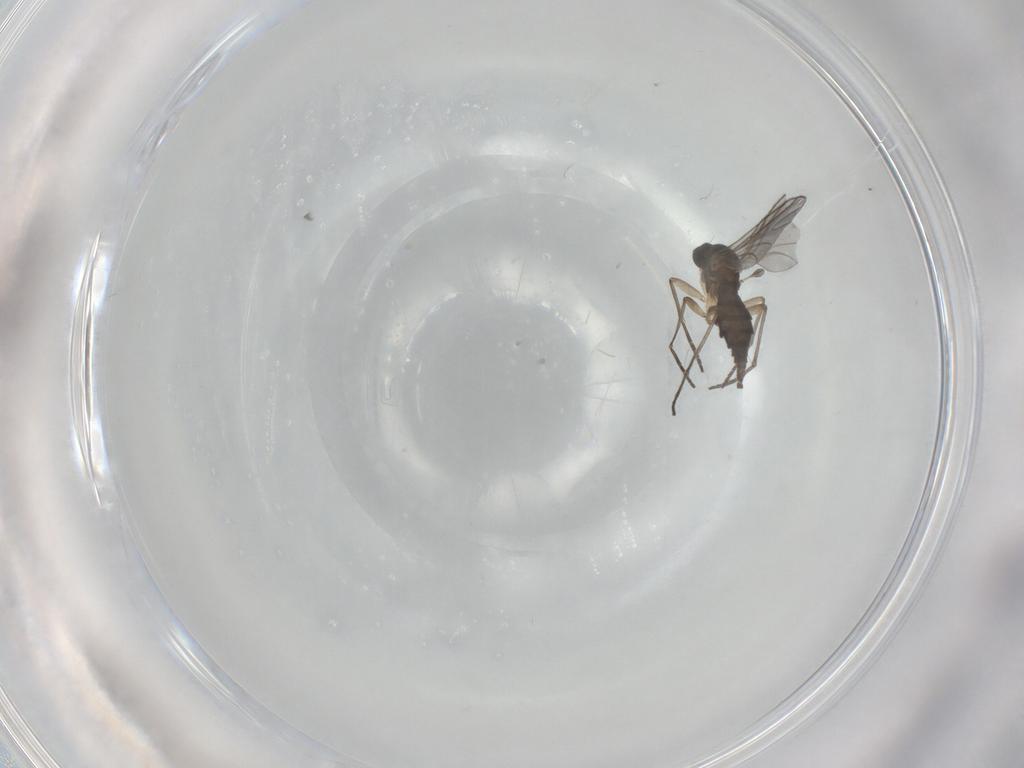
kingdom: Animalia
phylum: Arthropoda
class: Insecta
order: Diptera
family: Sciaridae
